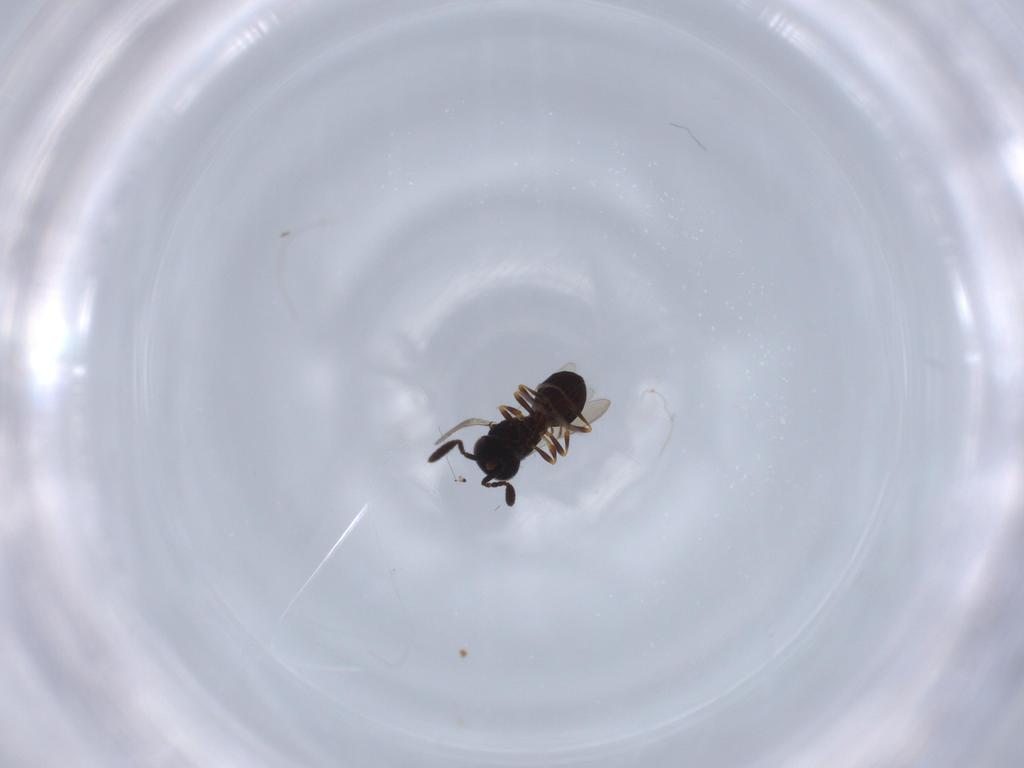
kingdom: Animalia
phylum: Arthropoda
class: Insecta
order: Hymenoptera
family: Scelionidae
